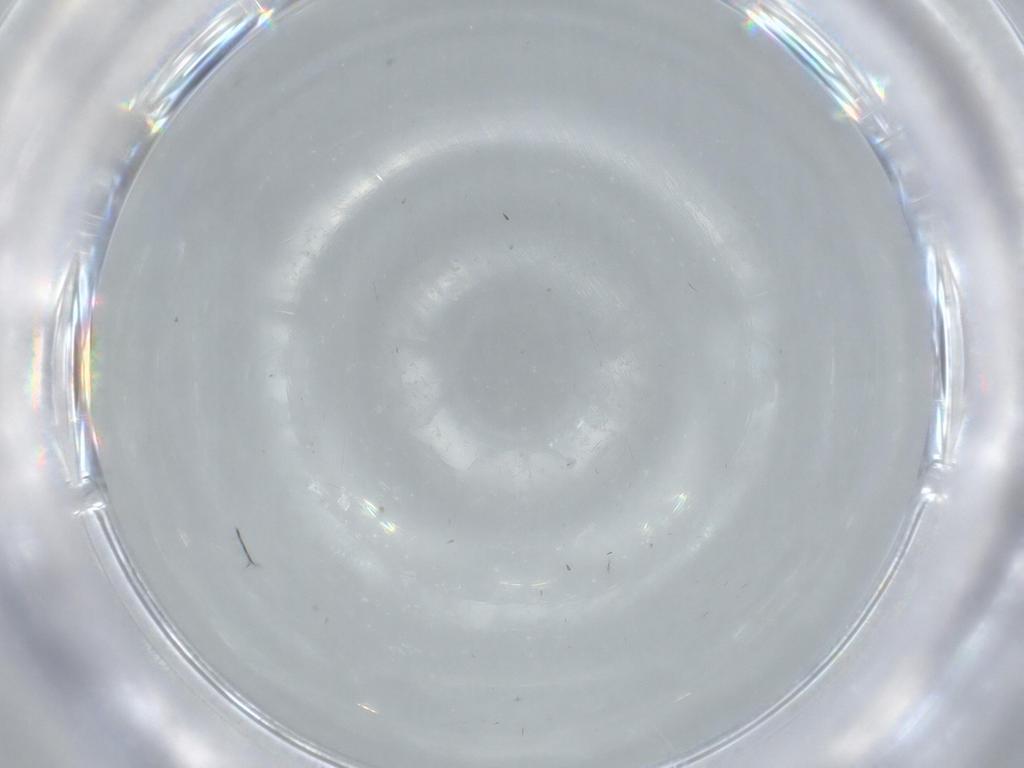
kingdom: Animalia
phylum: Arthropoda
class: Insecta
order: Diptera
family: Cecidomyiidae
